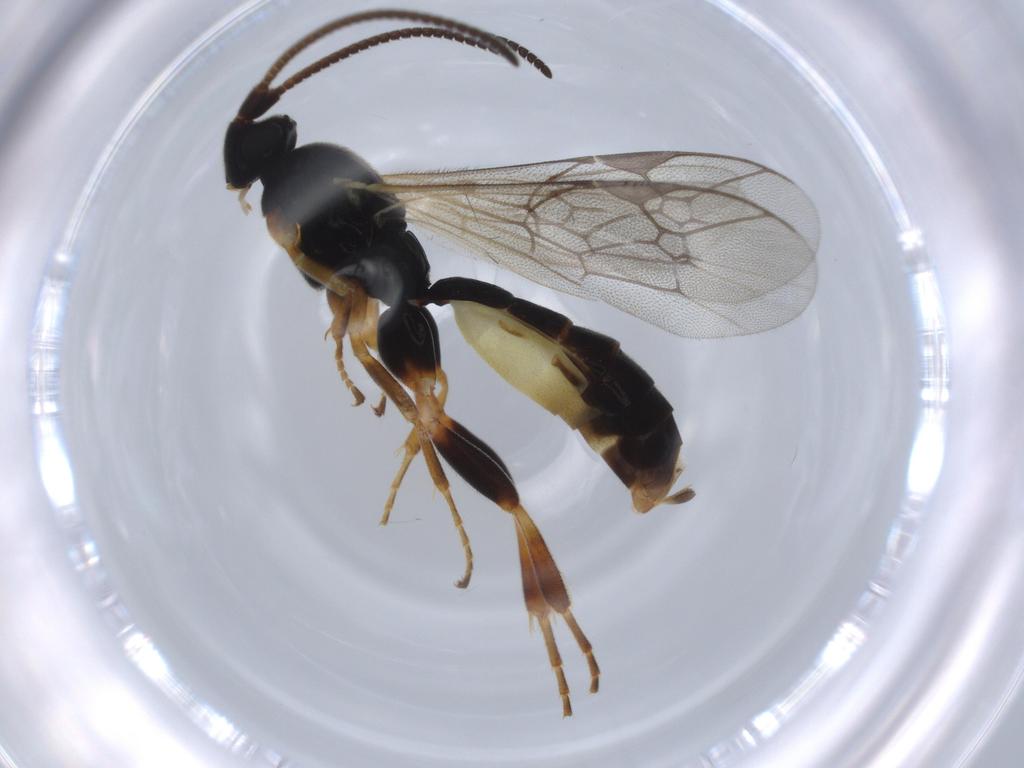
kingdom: Animalia
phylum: Arthropoda
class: Insecta
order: Hymenoptera
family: Ichneumonidae
